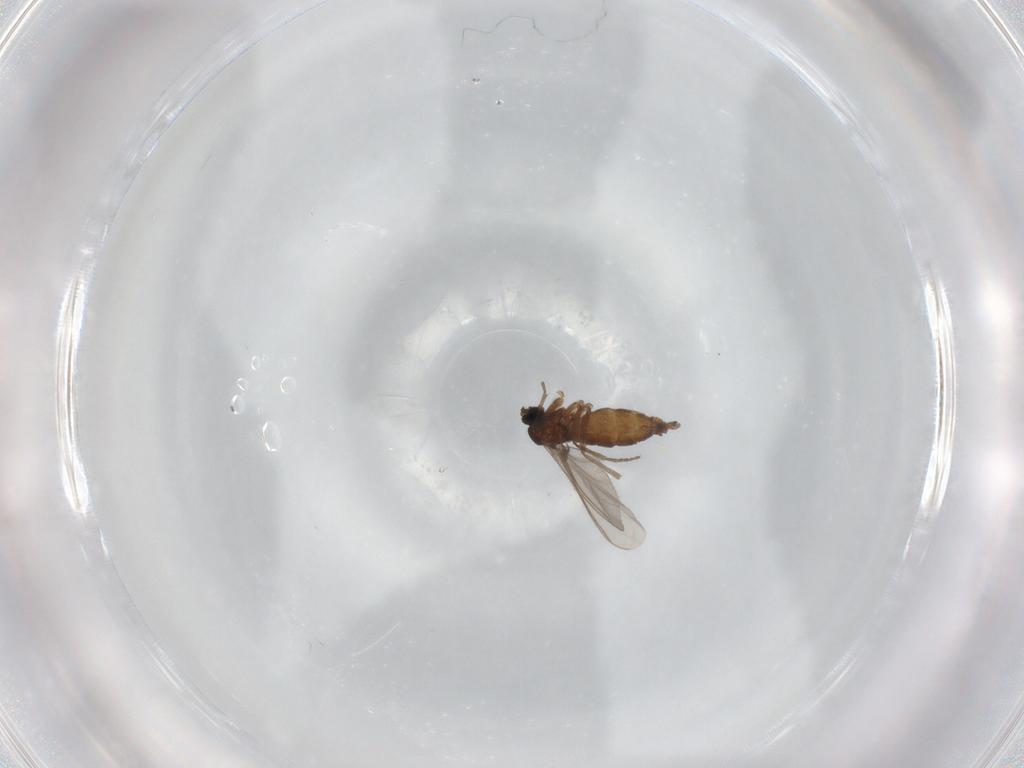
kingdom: Animalia
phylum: Arthropoda
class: Insecta
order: Diptera
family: Sciaridae
